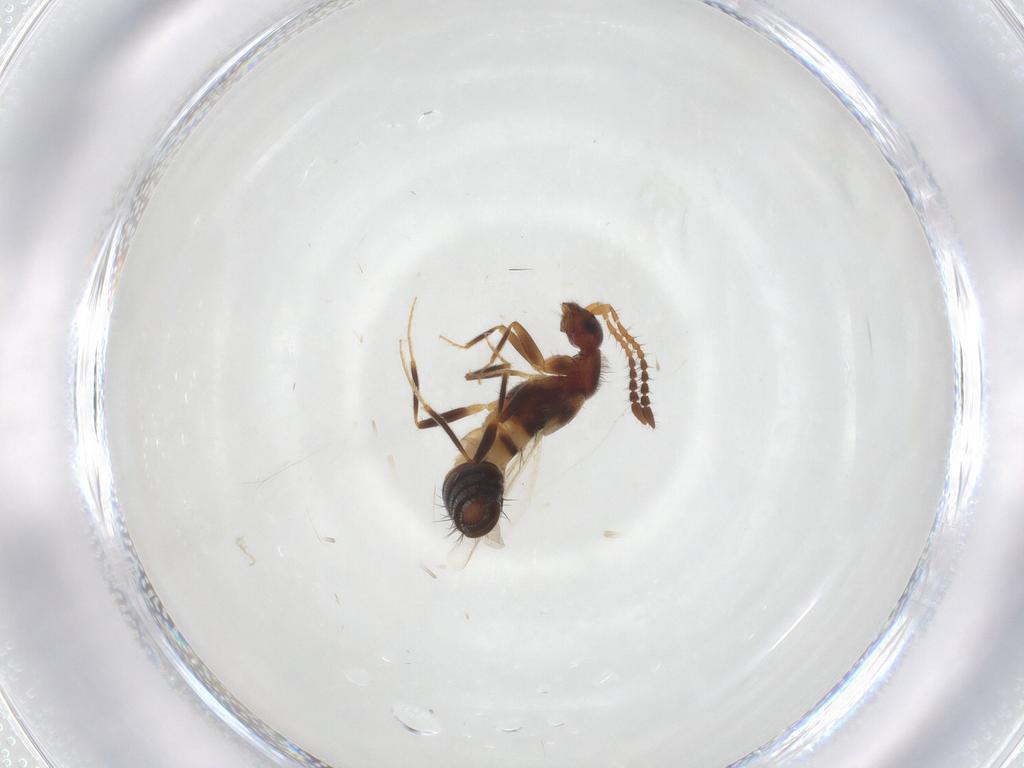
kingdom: Animalia
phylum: Arthropoda
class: Insecta
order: Coleoptera
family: Staphylinidae
